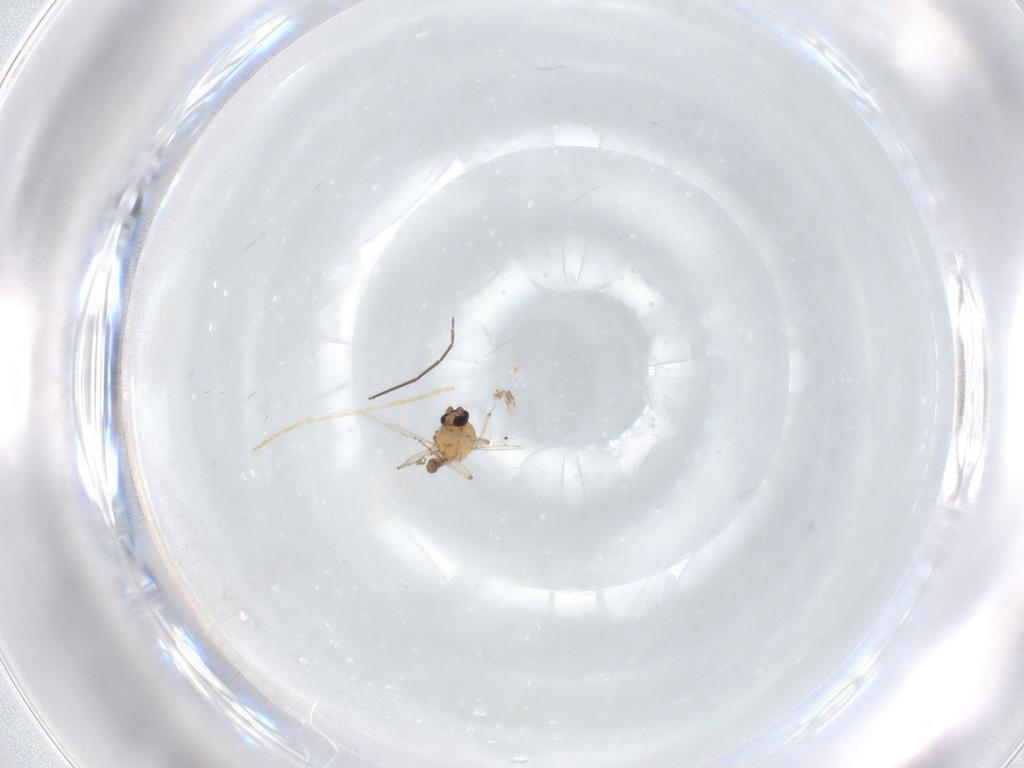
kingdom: Animalia
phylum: Arthropoda
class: Insecta
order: Diptera
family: Ceratopogonidae
